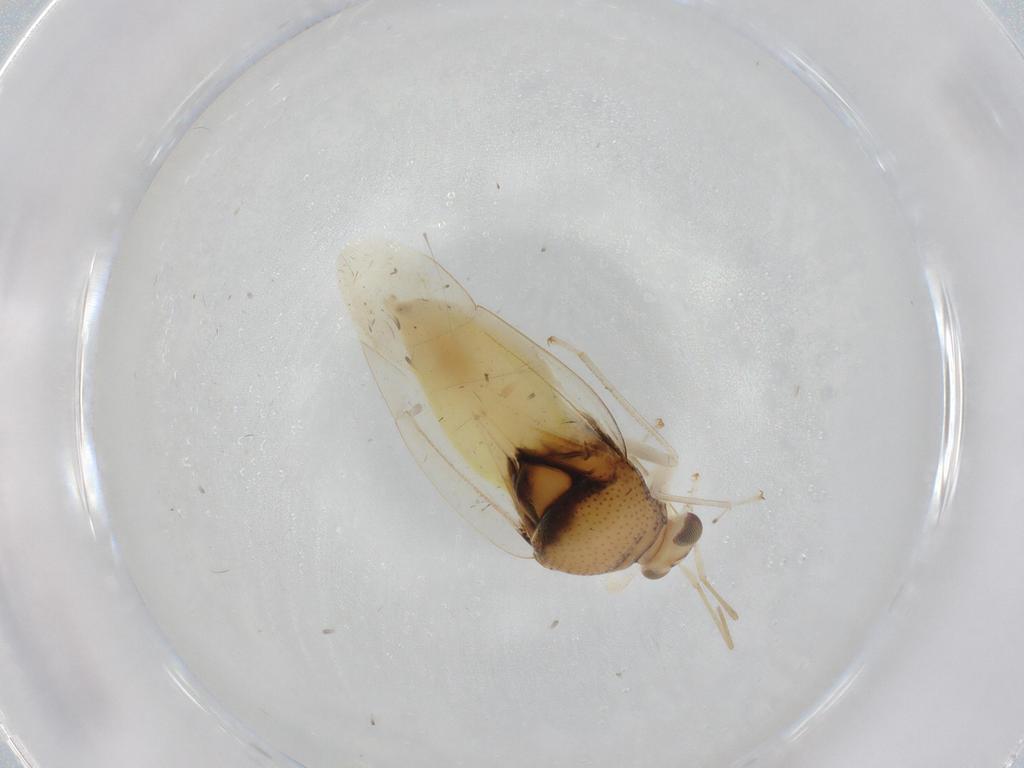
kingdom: Animalia
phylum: Arthropoda
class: Insecta
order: Hemiptera
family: Miridae
